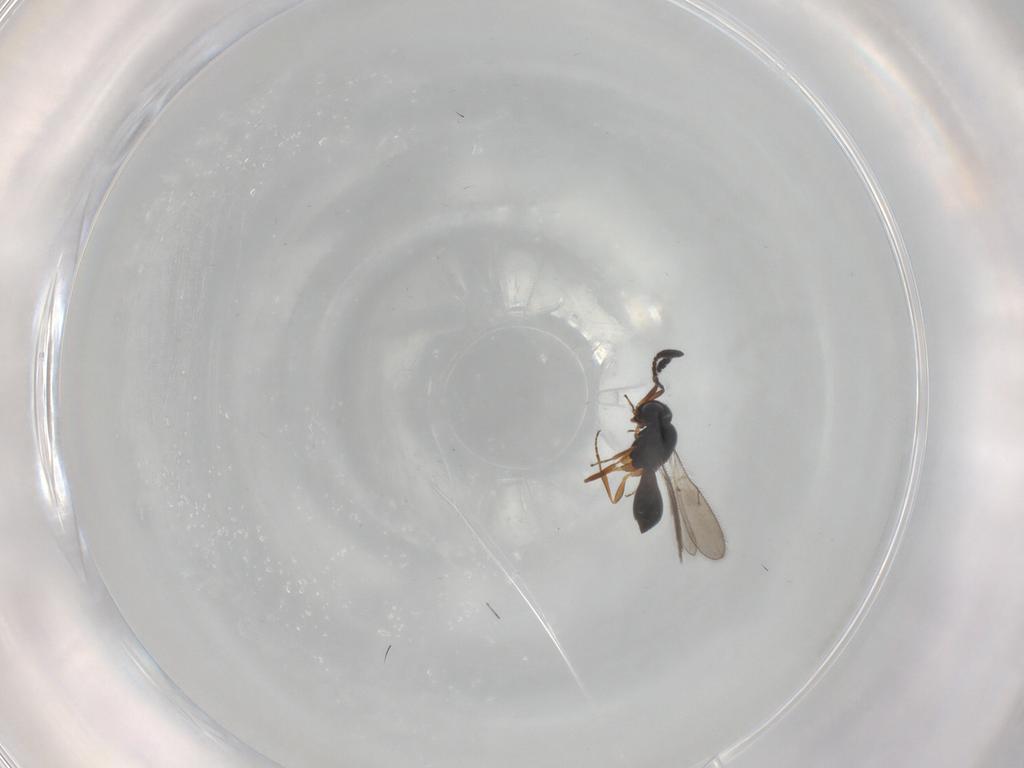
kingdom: Animalia
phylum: Arthropoda
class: Insecta
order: Hymenoptera
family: Scelionidae
